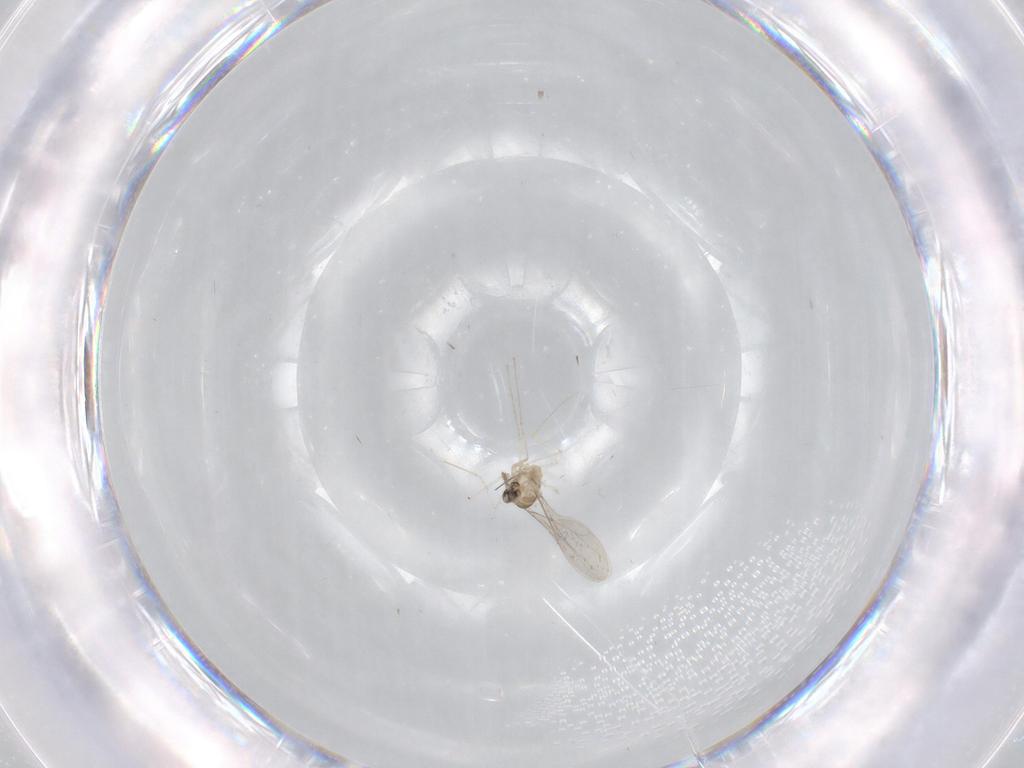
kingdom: Animalia
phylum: Arthropoda
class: Insecta
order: Diptera
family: Cecidomyiidae
